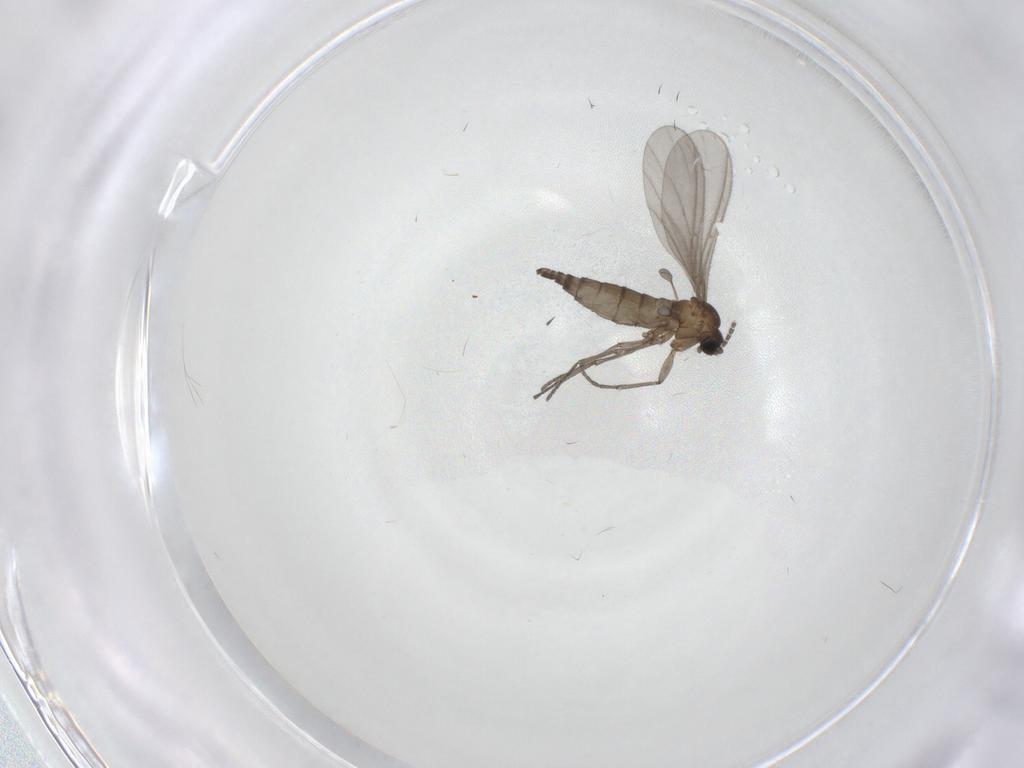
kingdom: Animalia
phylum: Arthropoda
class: Insecta
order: Diptera
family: Sciaridae
